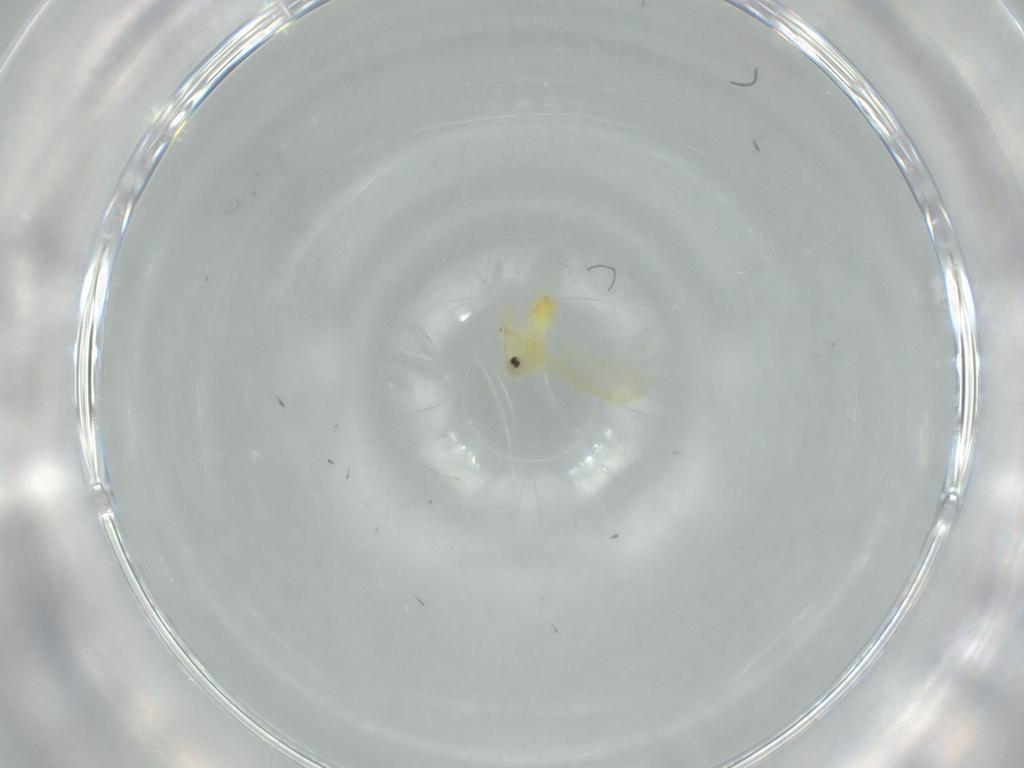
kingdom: Animalia
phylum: Arthropoda
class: Insecta
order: Hemiptera
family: Aleyrodidae
